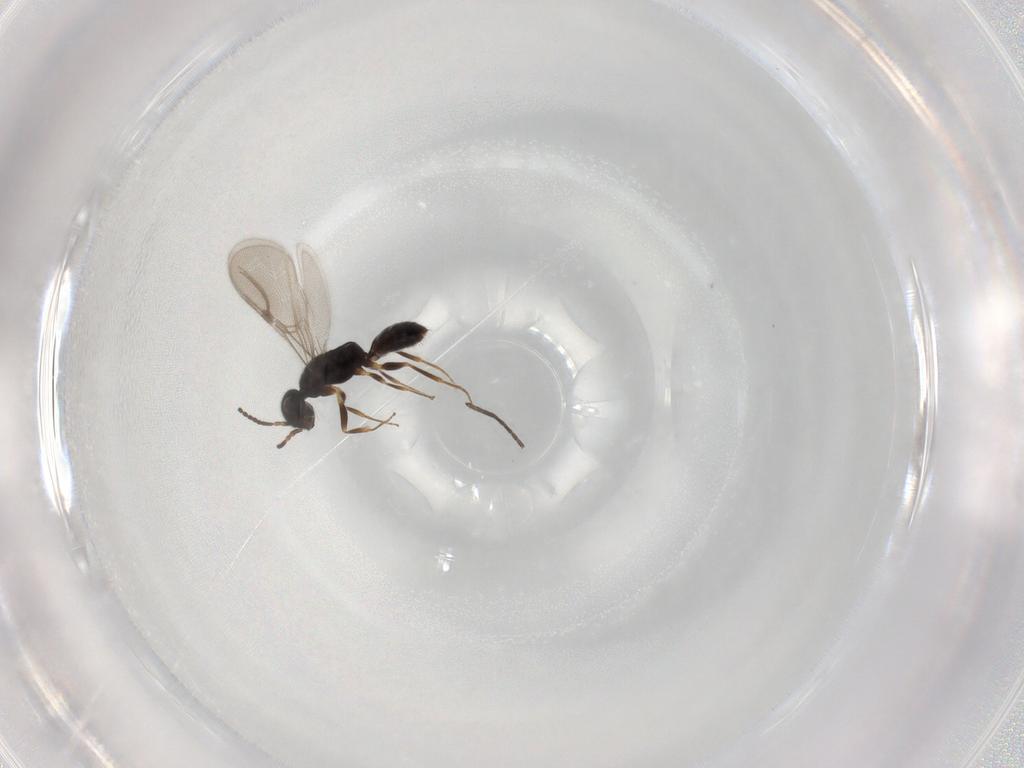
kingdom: Animalia
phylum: Arthropoda
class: Insecta
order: Hymenoptera
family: Bethylidae
